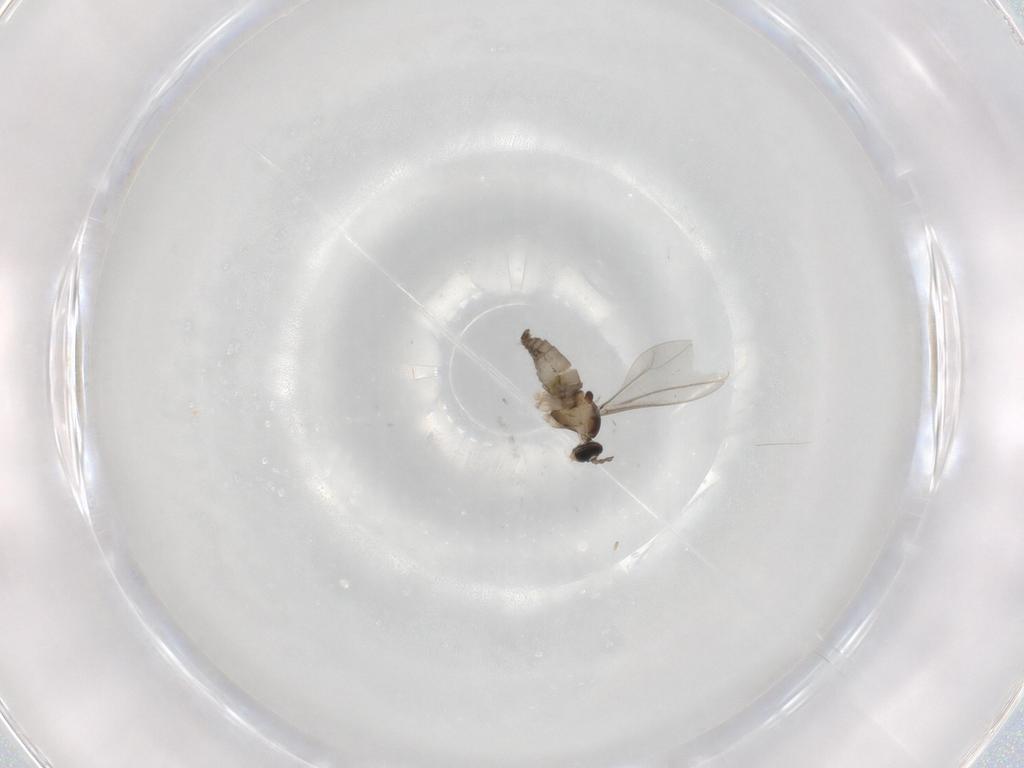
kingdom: Animalia
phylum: Arthropoda
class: Insecta
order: Diptera
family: Cecidomyiidae
